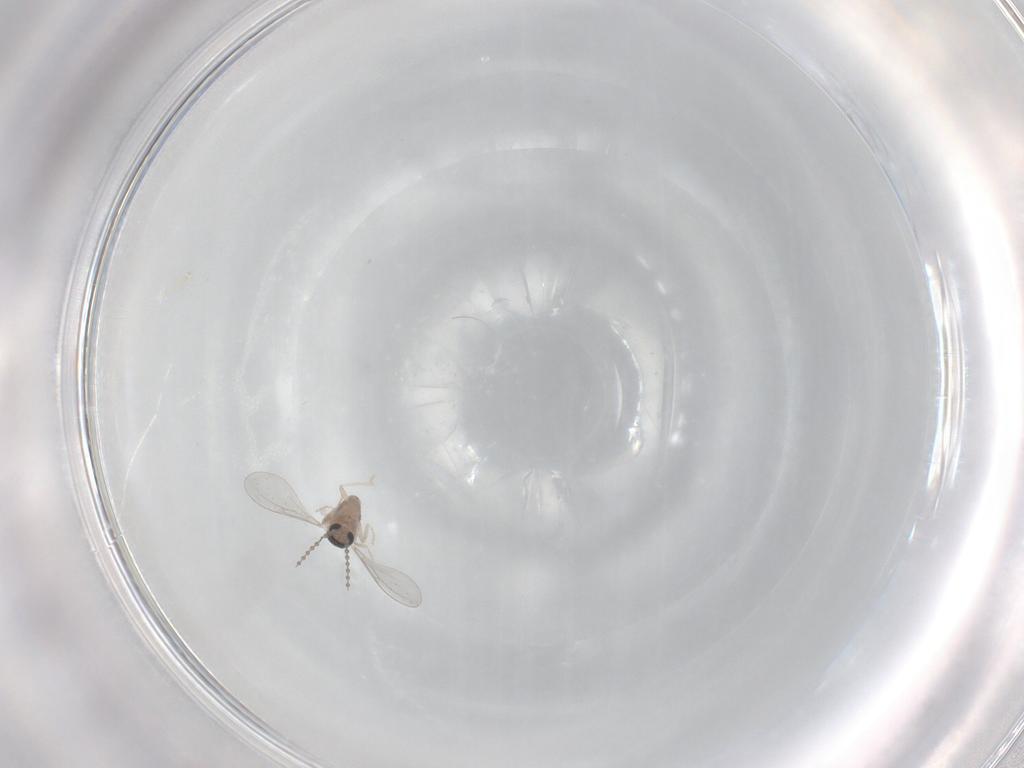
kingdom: Animalia
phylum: Arthropoda
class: Insecta
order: Diptera
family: Cecidomyiidae
